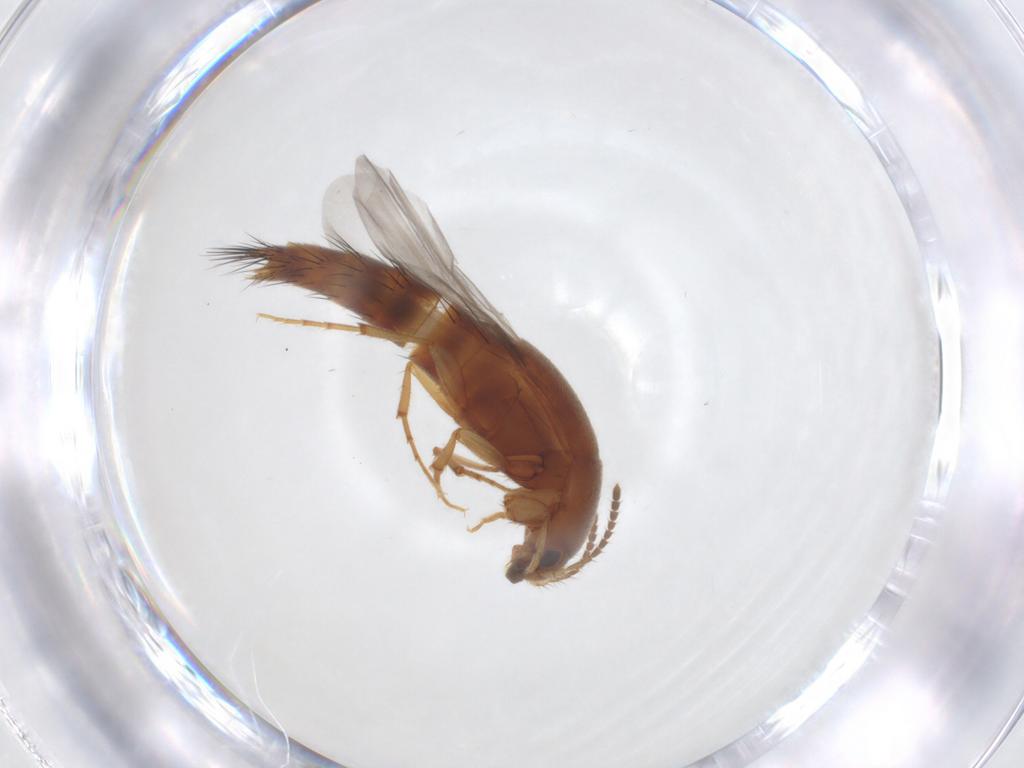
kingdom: Animalia
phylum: Arthropoda
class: Insecta
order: Coleoptera
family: Staphylinidae
